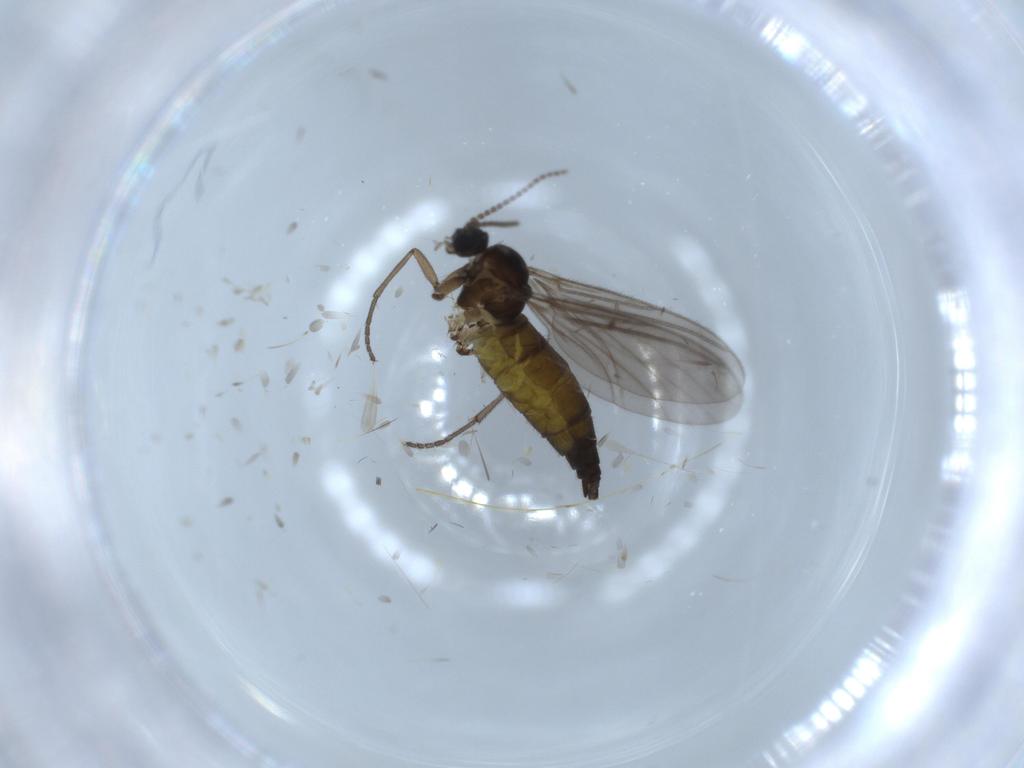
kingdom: Animalia
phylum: Arthropoda
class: Insecta
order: Diptera
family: Sciaridae
